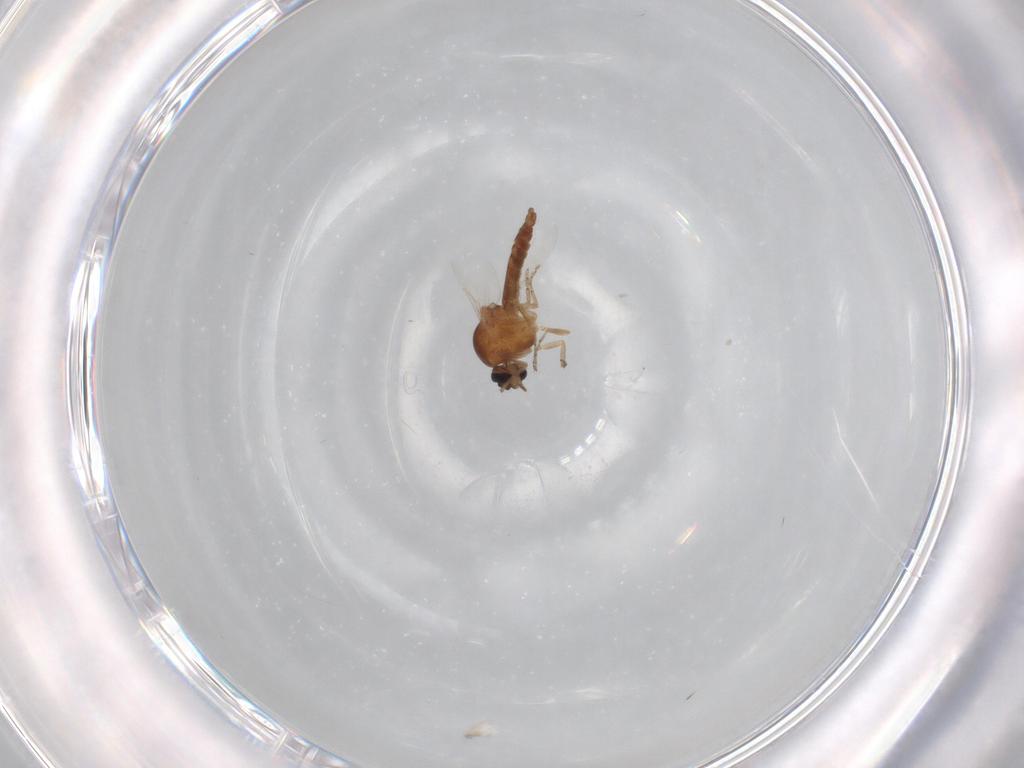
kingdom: Animalia
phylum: Arthropoda
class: Insecta
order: Diptera
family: Ceratopogonidae
